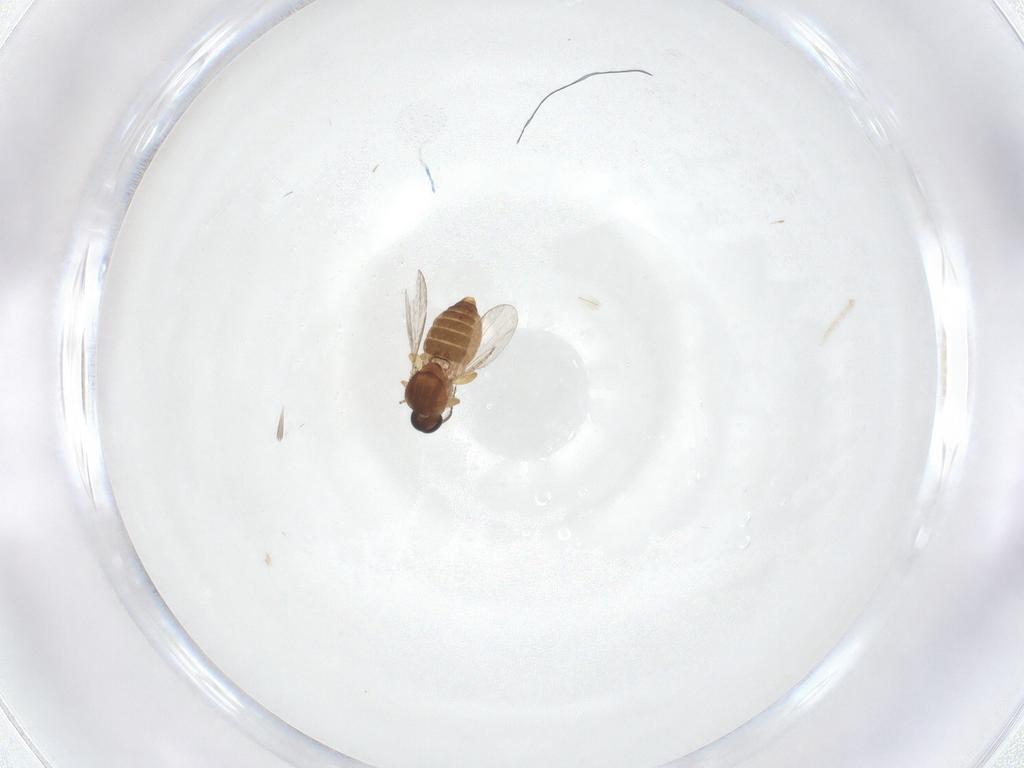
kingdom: Animalia
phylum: Arthropoda
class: Insecta
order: Diptera
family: Ceratopogonidae
